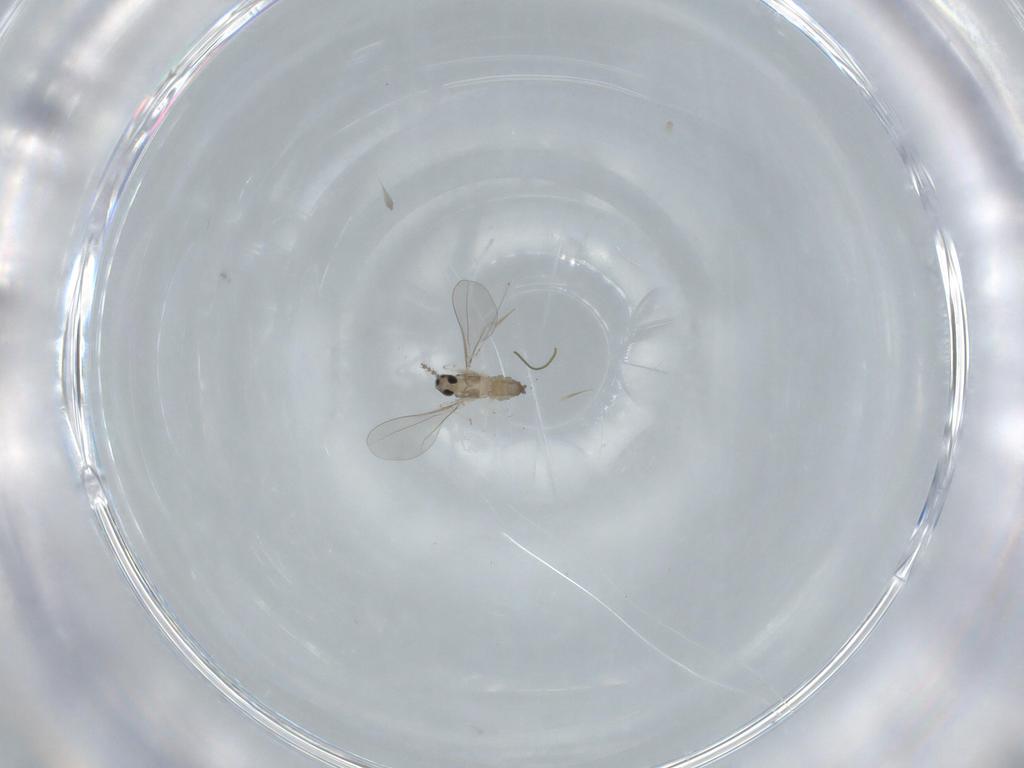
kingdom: Animalia
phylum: Arthropoda
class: Insecta
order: Diptera
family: Cecidomyiidae
